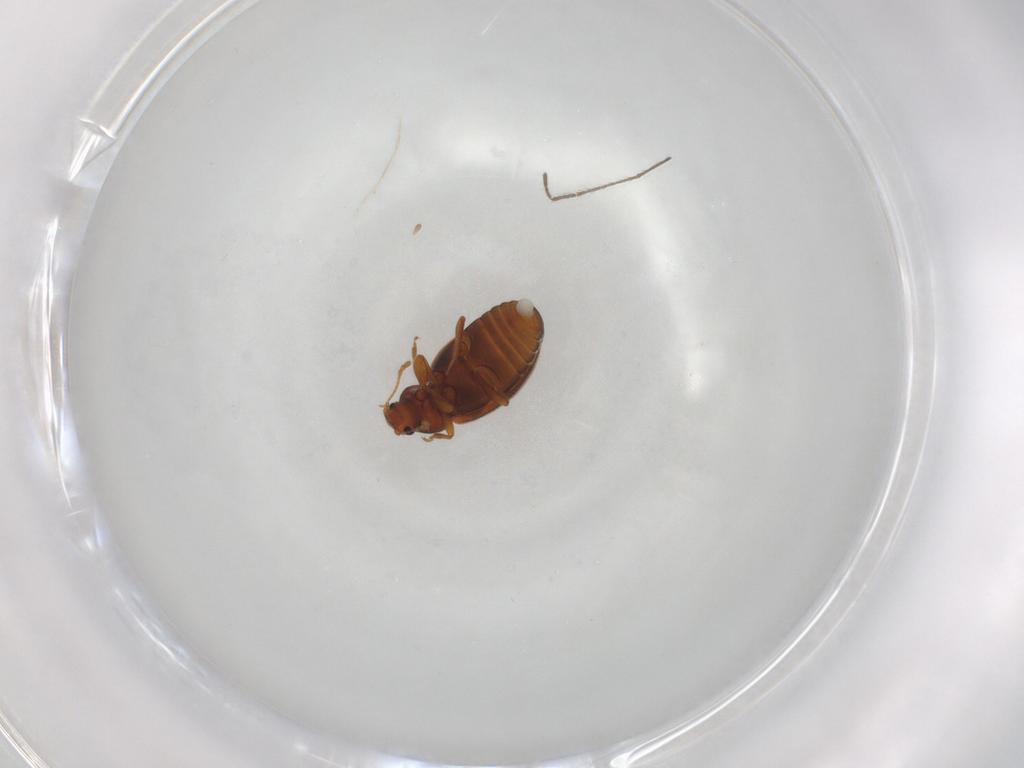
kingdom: Animalia
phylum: Arthropoda
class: Insecta
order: Coleoptera
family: Latridiidae
